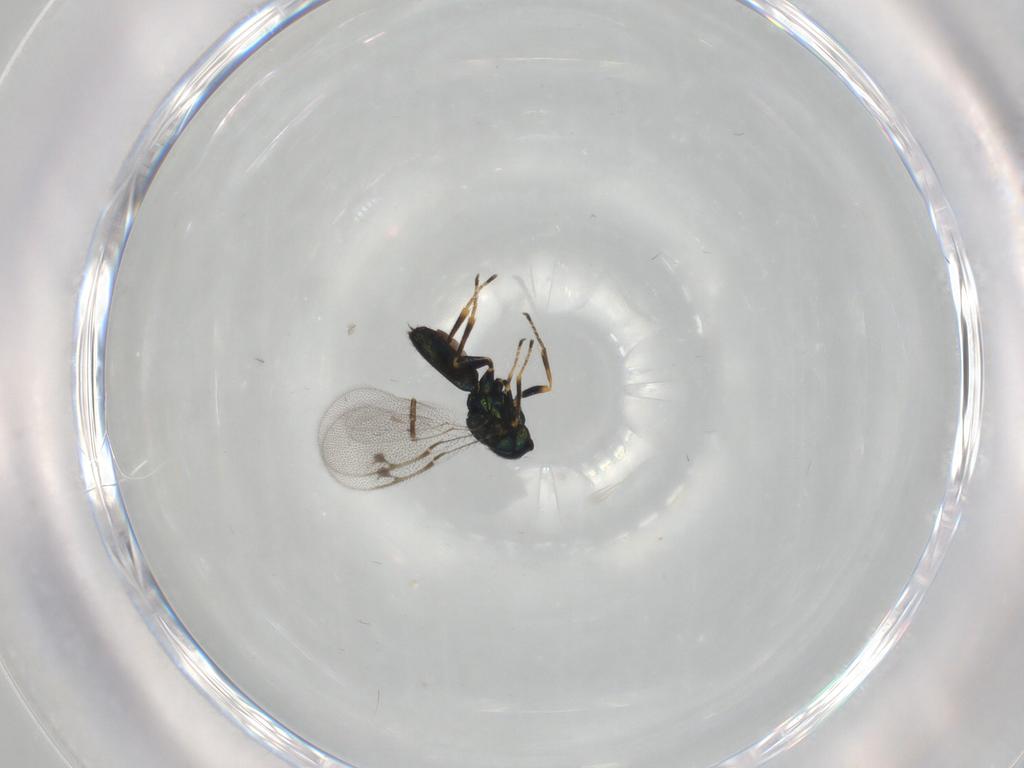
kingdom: Animalia
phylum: Arthropoda
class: Insecta
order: Hymenoptera
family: Pirenidae
